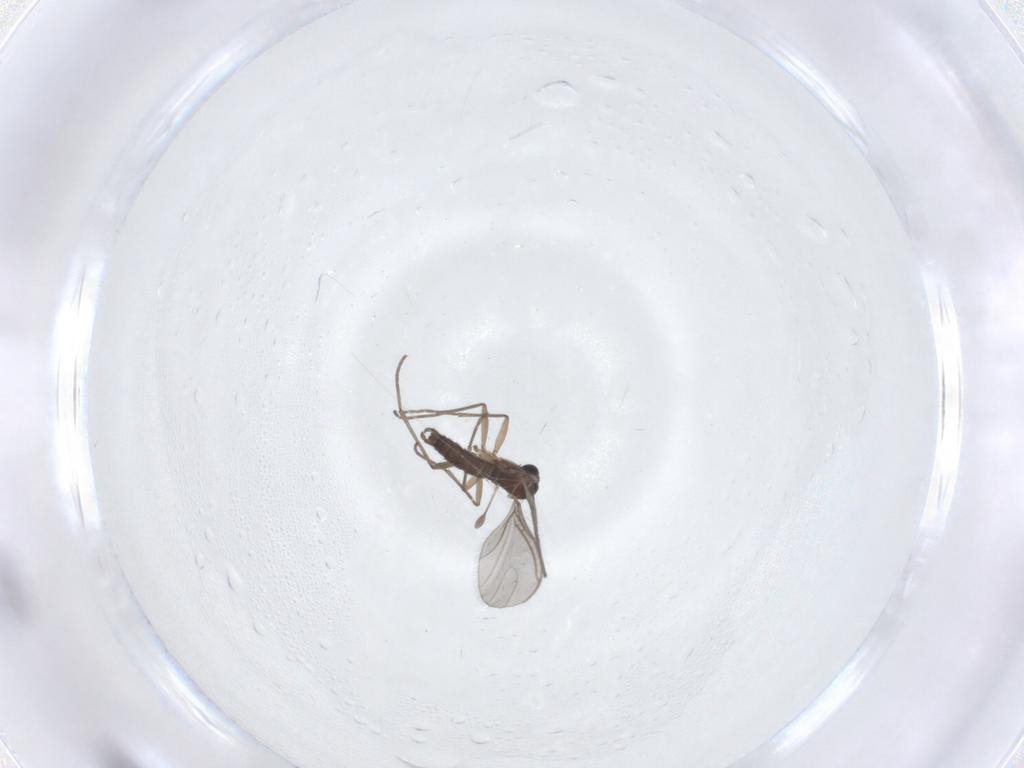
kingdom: Animalia
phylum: Arthropoda
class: Insecta
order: Diptera
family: Sciaridae
